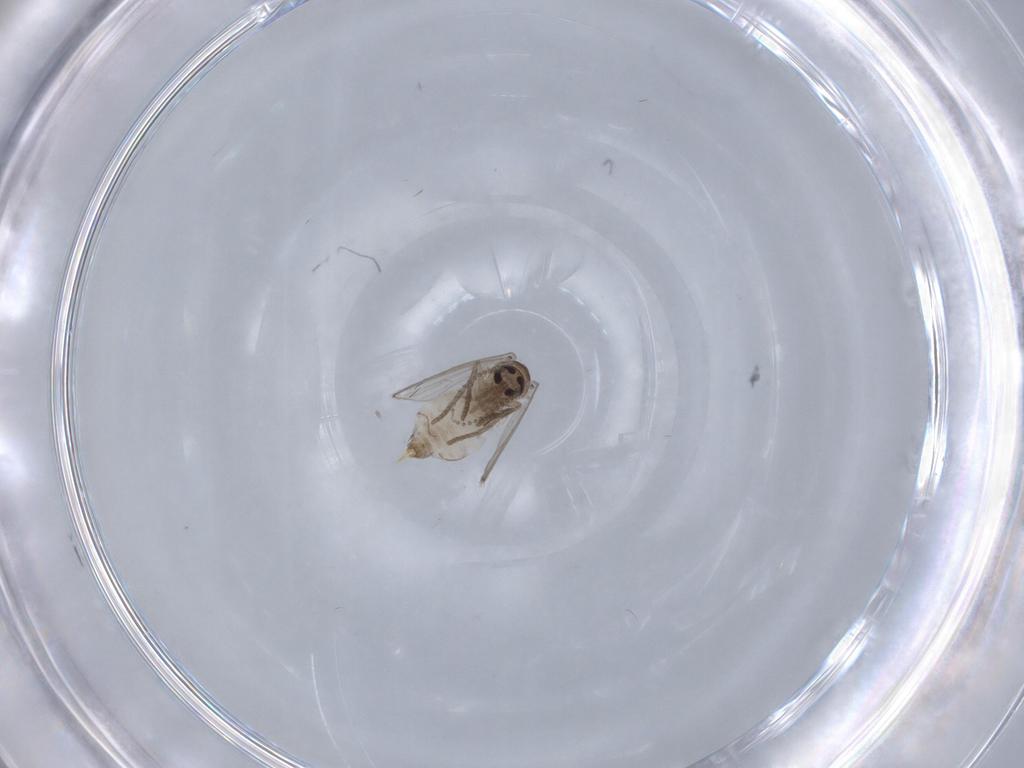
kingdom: Animalia
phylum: Arthropoda
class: Insecta
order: Diptera
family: Psychodidae
